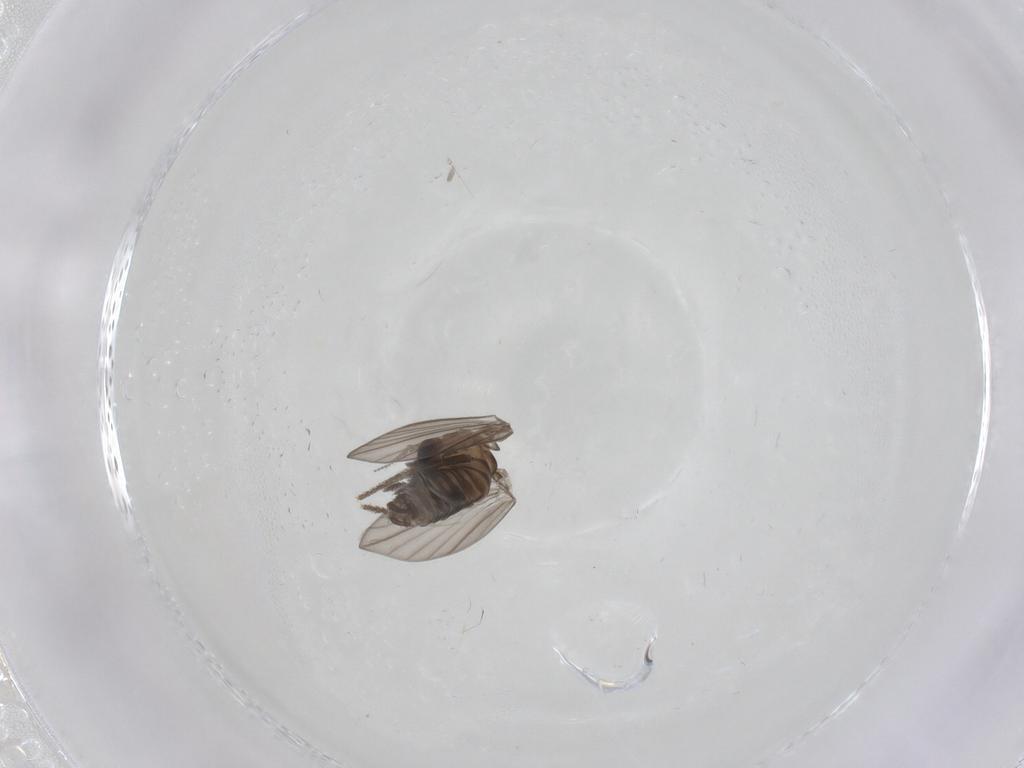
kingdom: Animalia
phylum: Arthropoda
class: Insecta
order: Diptera
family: Psychodidae
